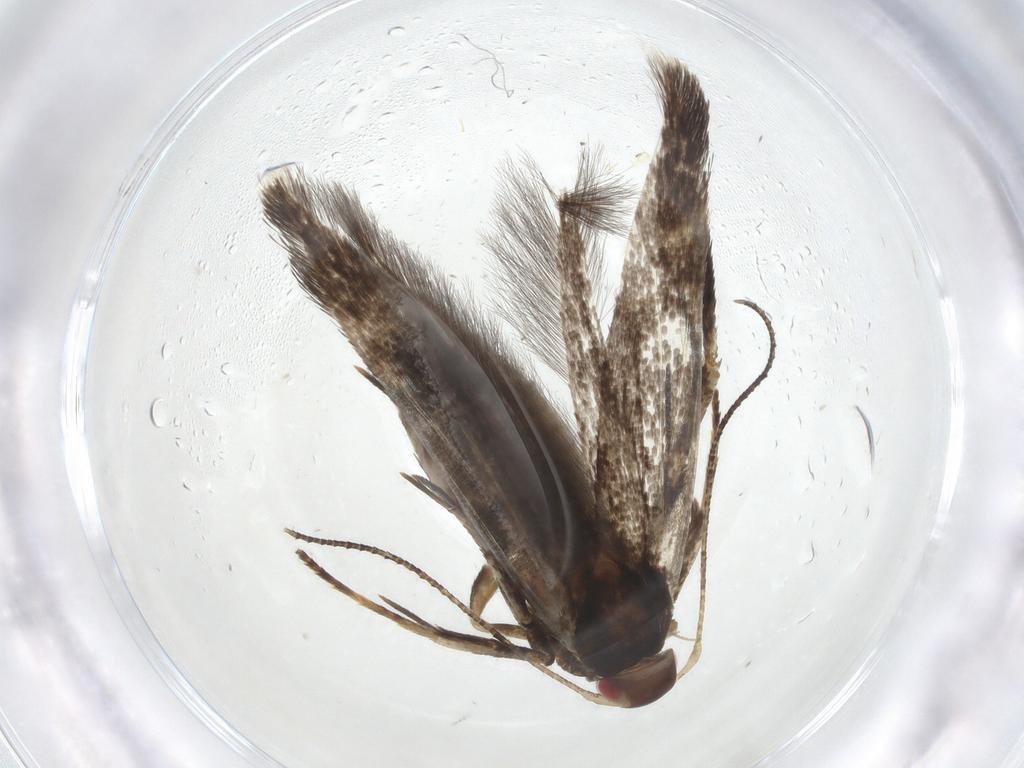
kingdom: Animalia
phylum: Arthropoda
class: Insecta
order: Lepidoptera
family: Gelechiidae
